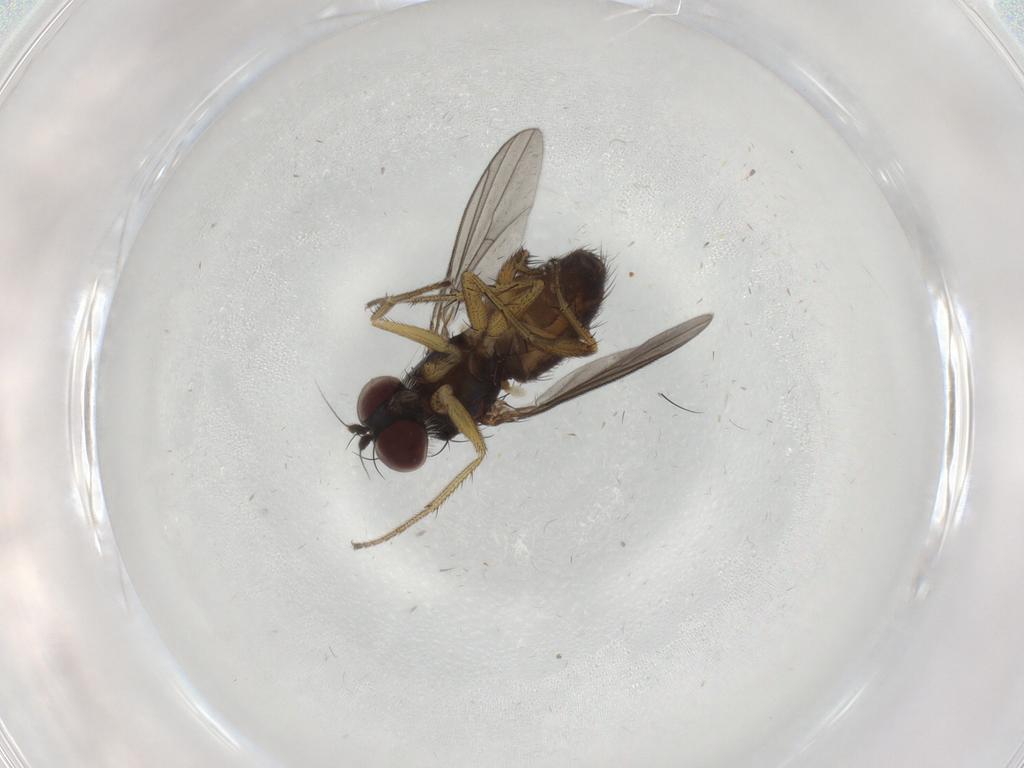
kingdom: Animalia
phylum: Arthropoda
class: Insecta
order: Diptera
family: Dolichopodidae
